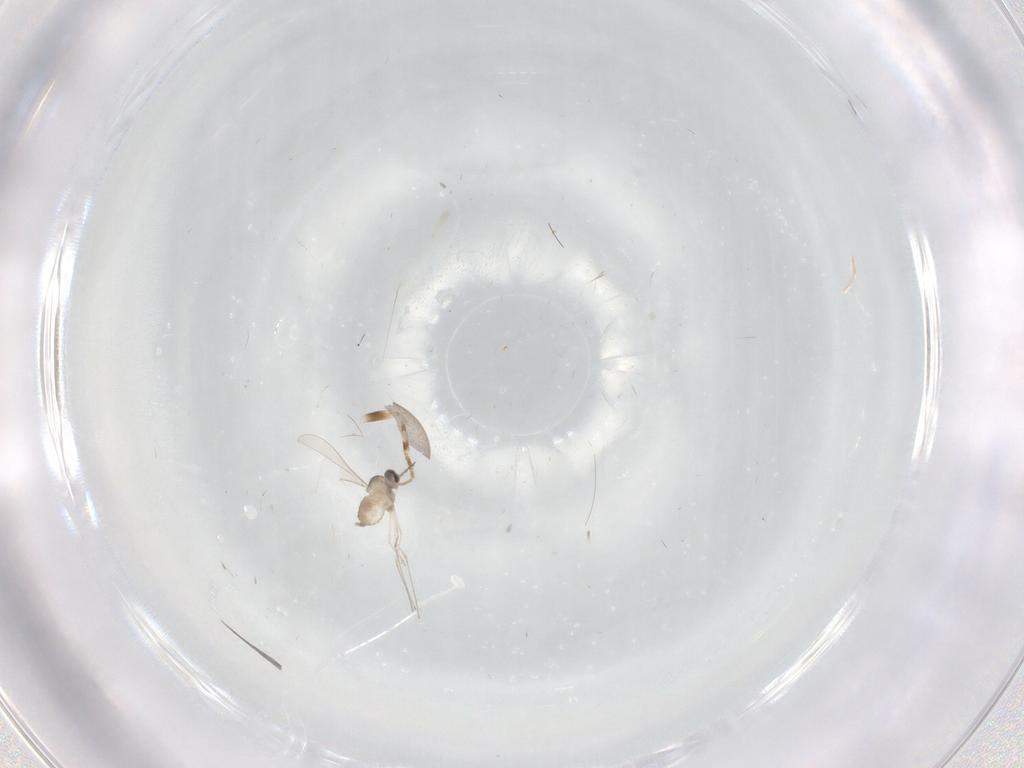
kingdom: Animalia
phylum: Arthropoda
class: Insecta
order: Diptera
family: Cecidomyiidae
